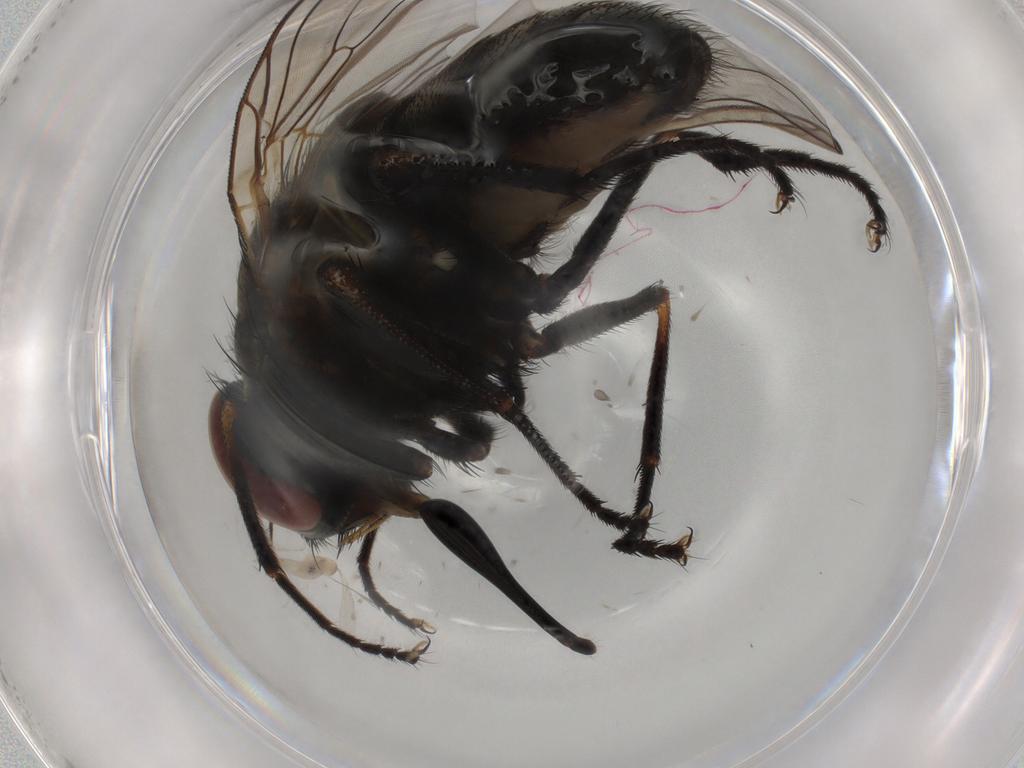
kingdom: Animalia
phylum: Arthropoda
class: Insecta
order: Diptera
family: Muscidae
